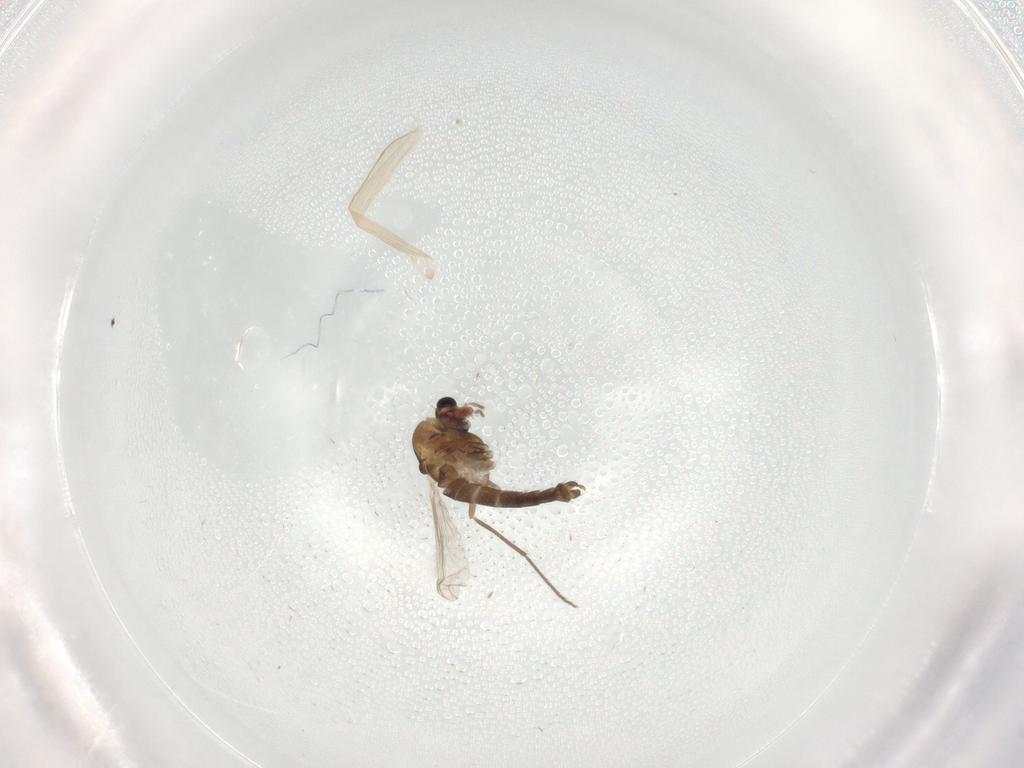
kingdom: Animalia
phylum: Arthropoda
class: Insecta
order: Diptera
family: Chironomidae
